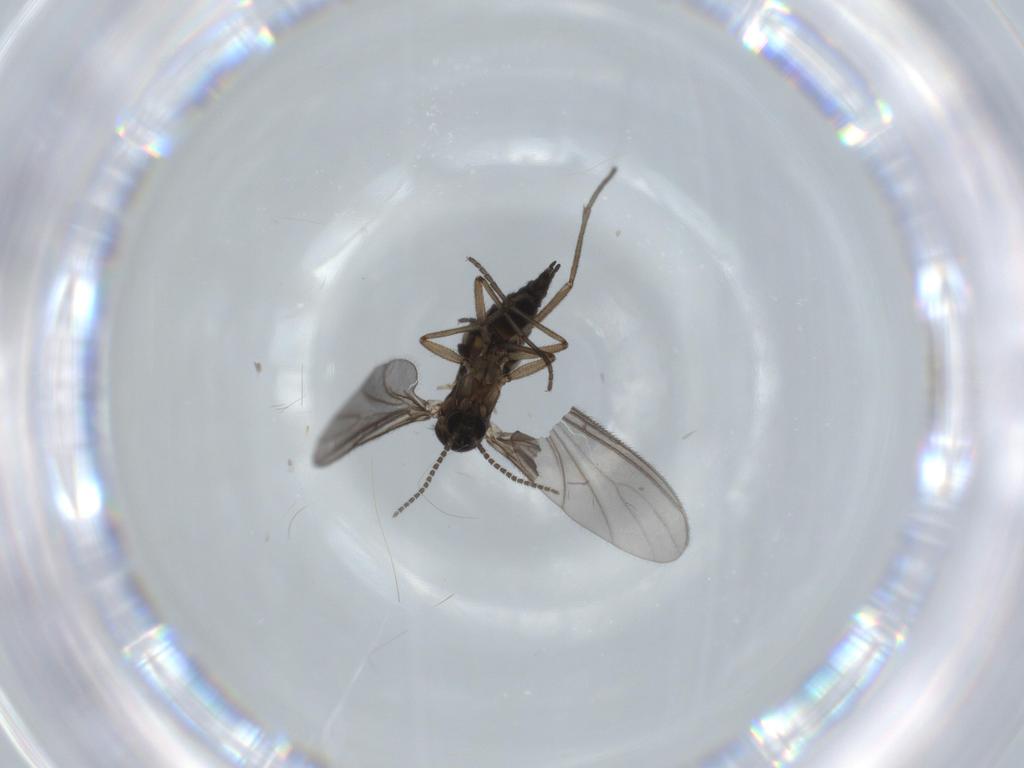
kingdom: Animalia
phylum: Arthropoda
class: Insecta
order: Diptera
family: Sciaridae
